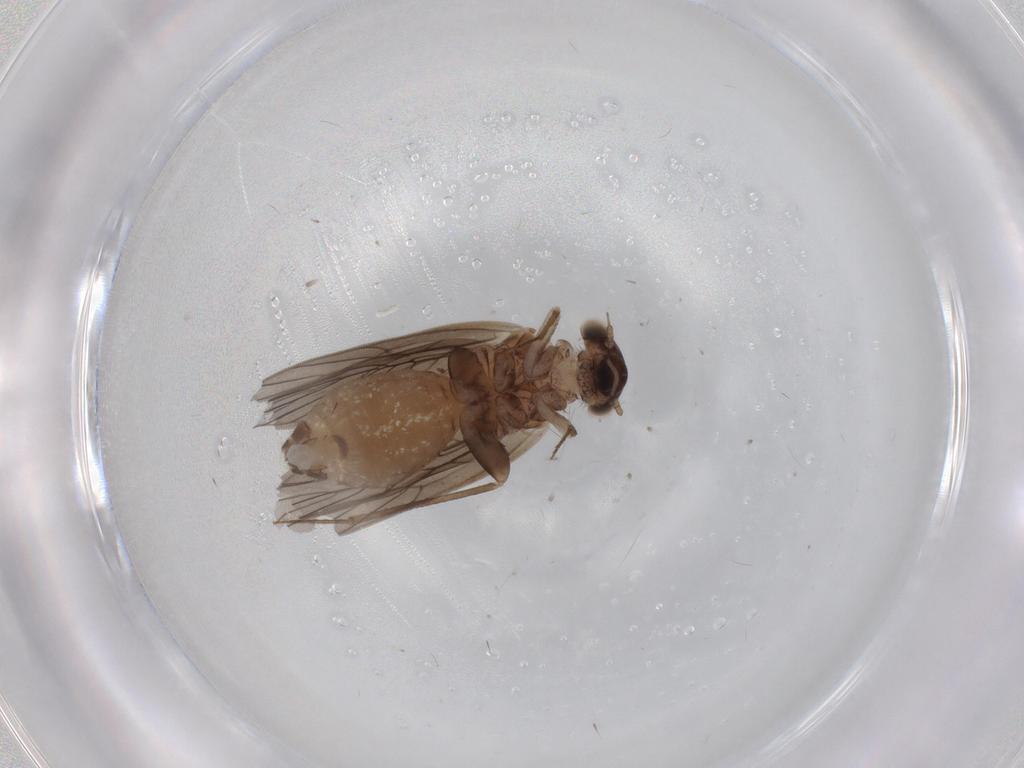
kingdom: Animalia
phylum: Arthropoda
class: Insecta
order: Psocodea
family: Lepidopsocidae
